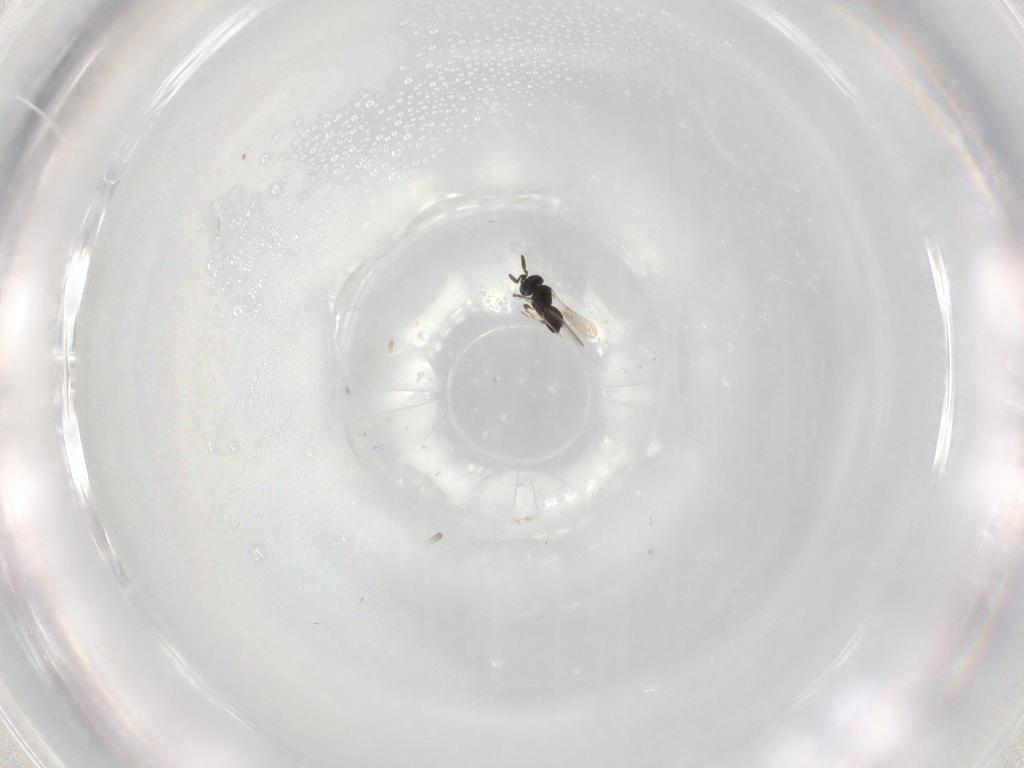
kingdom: Animalia
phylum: Arthropoda
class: Insecta
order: Hymenoptera
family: Scelionidae
